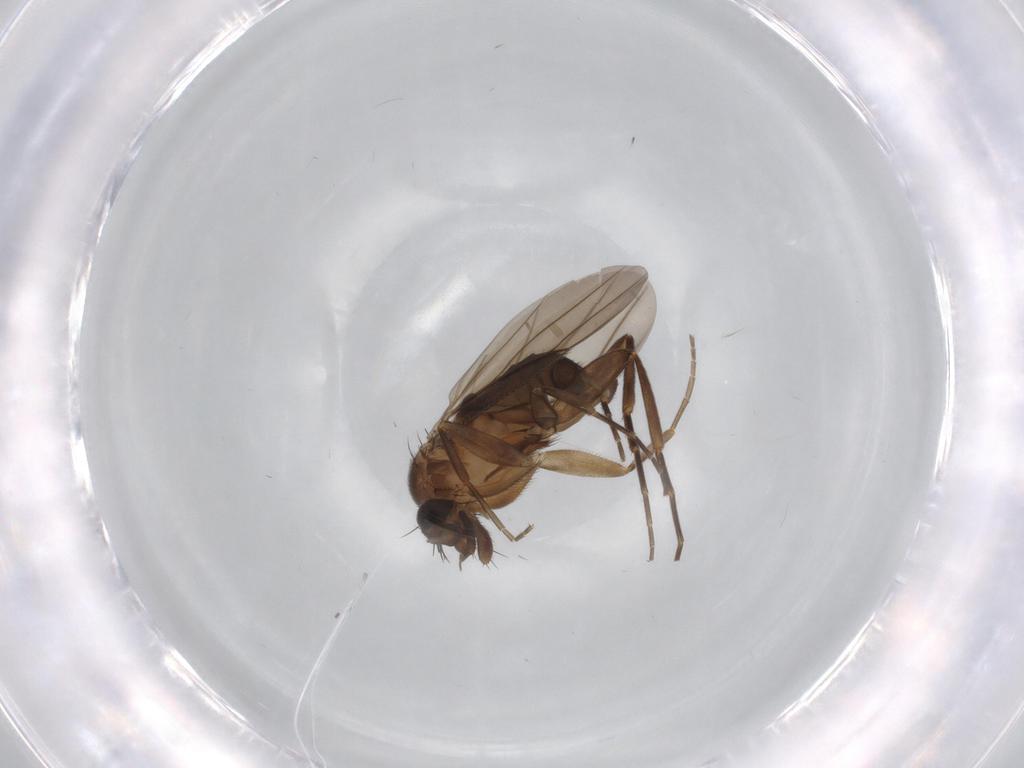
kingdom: Animalia
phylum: Arthropoda
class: Insecta
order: Diptera
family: Phoridae
